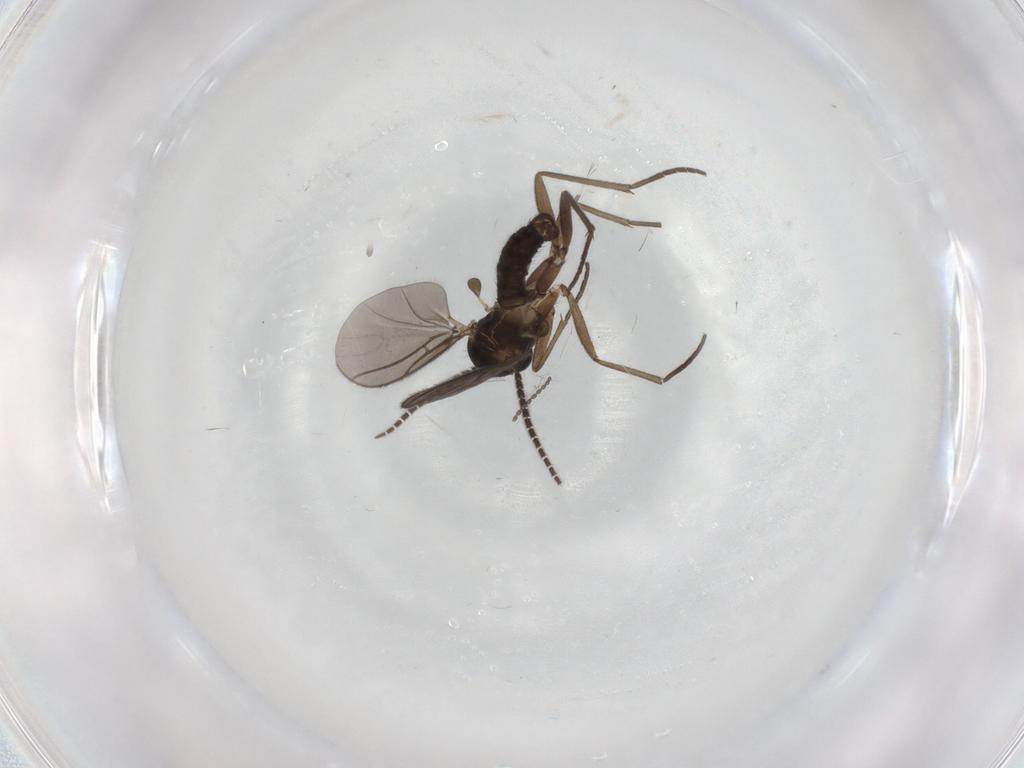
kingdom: Animalia
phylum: Arthropoda
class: Insecta
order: Diptera
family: Sciaridae
